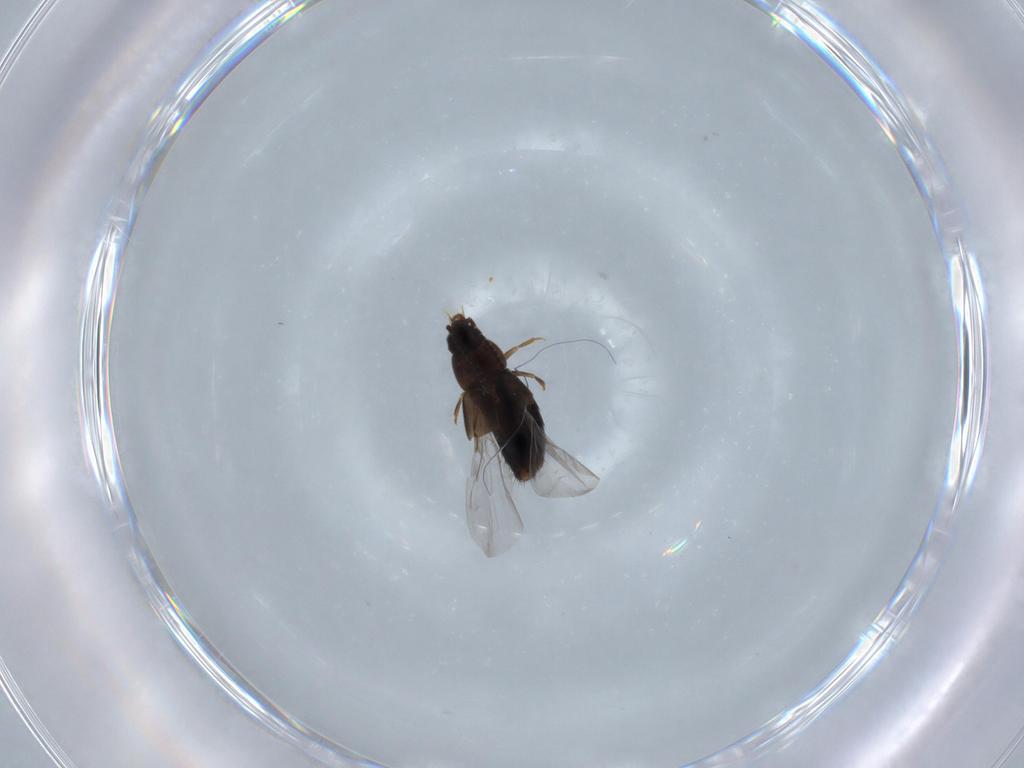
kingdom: Animalia
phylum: Arthropoda
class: Insecta
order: Coleoptera
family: Staphylinidae
